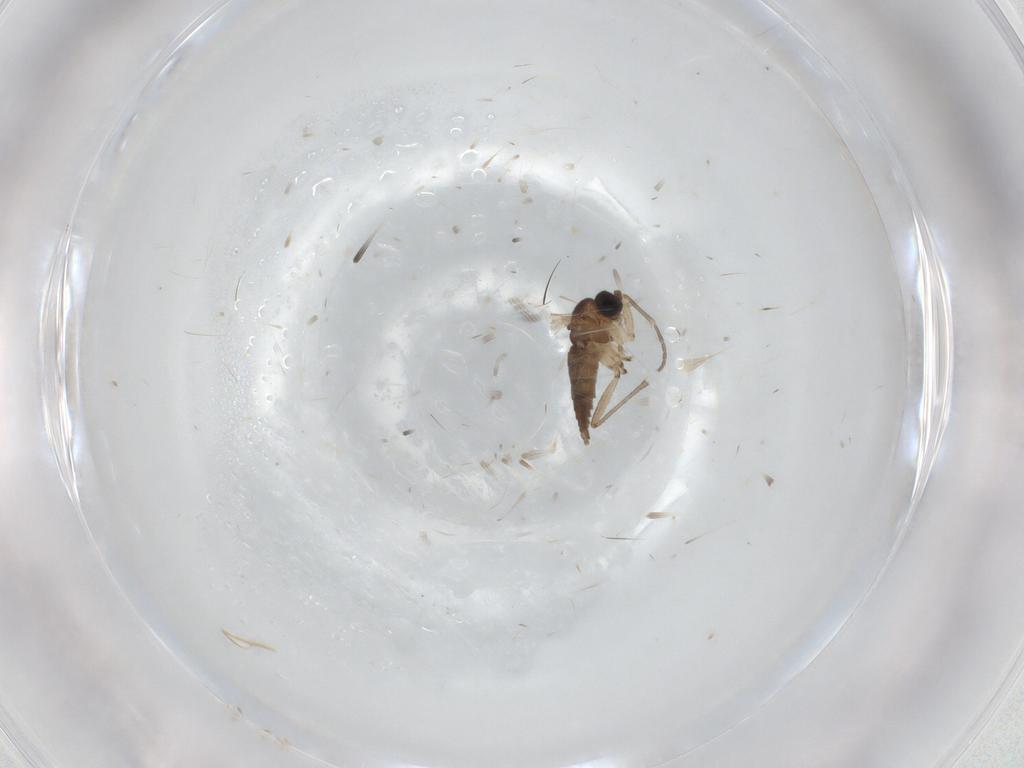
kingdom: Animalia
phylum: Arthropoda
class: Insecta
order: Diptera
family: Cecidomyiidae
